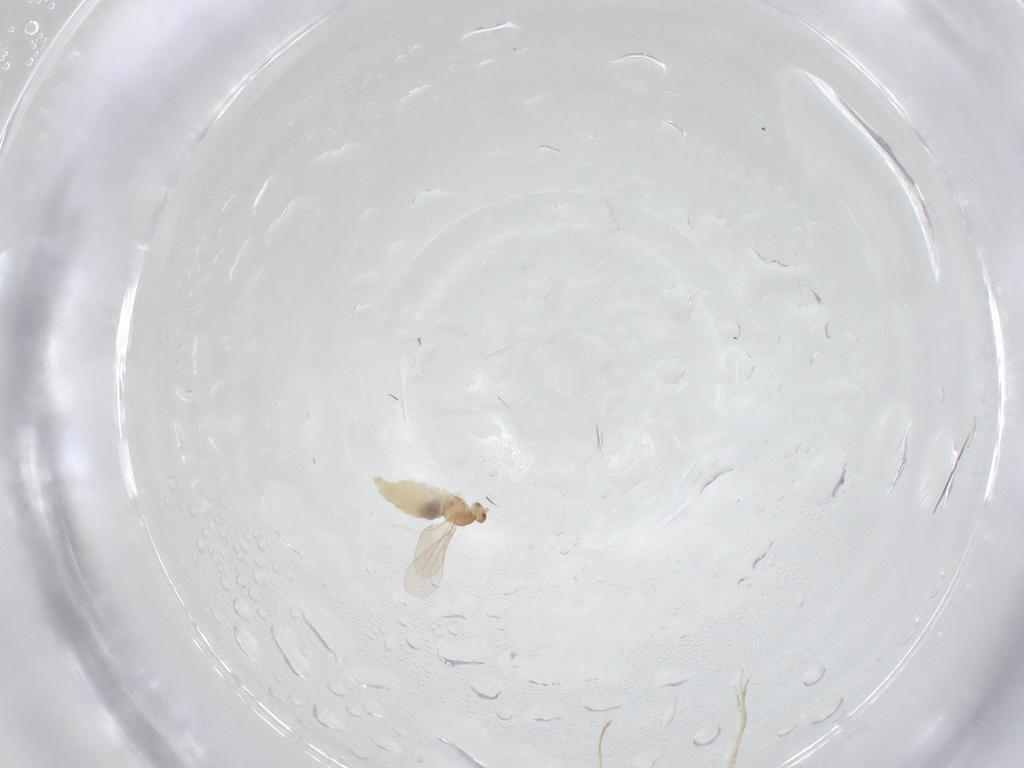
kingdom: Animalia
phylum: Arthropoda
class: Insecta
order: Diptera
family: Cecidomyiidae
